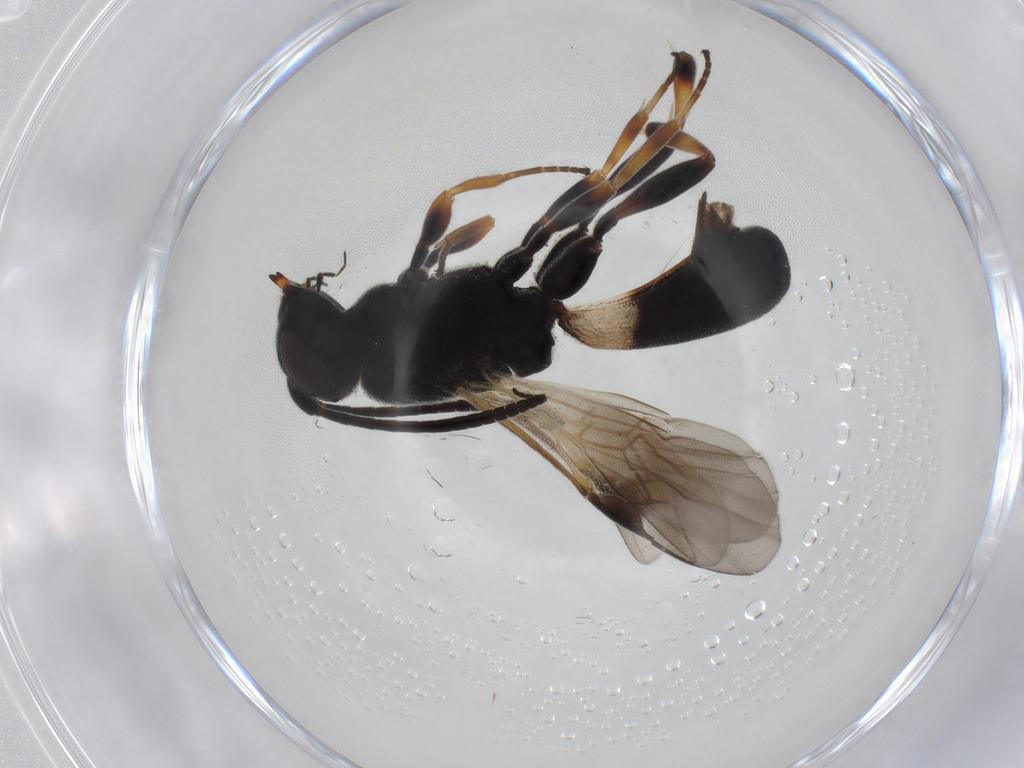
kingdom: Animalia
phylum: Arthropoda
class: Insecta
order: Hymenoptera
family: Braconidae
